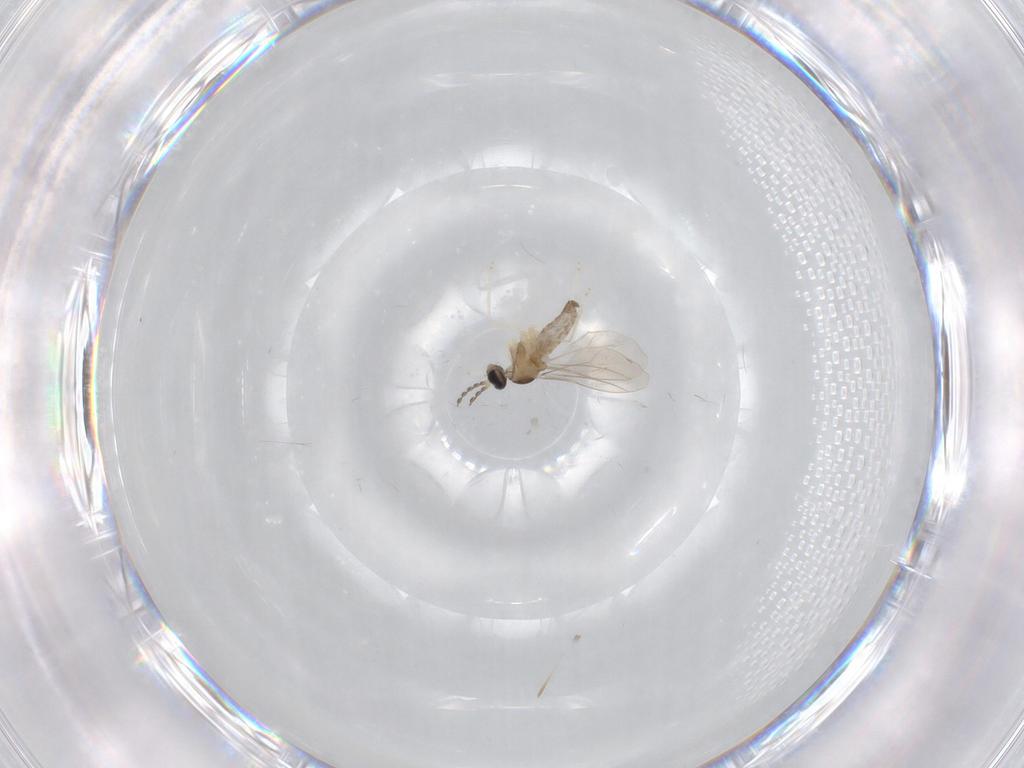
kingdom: Animalia
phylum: Arthropoda
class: Insecta
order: Diptera
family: Cecidomyiidae
